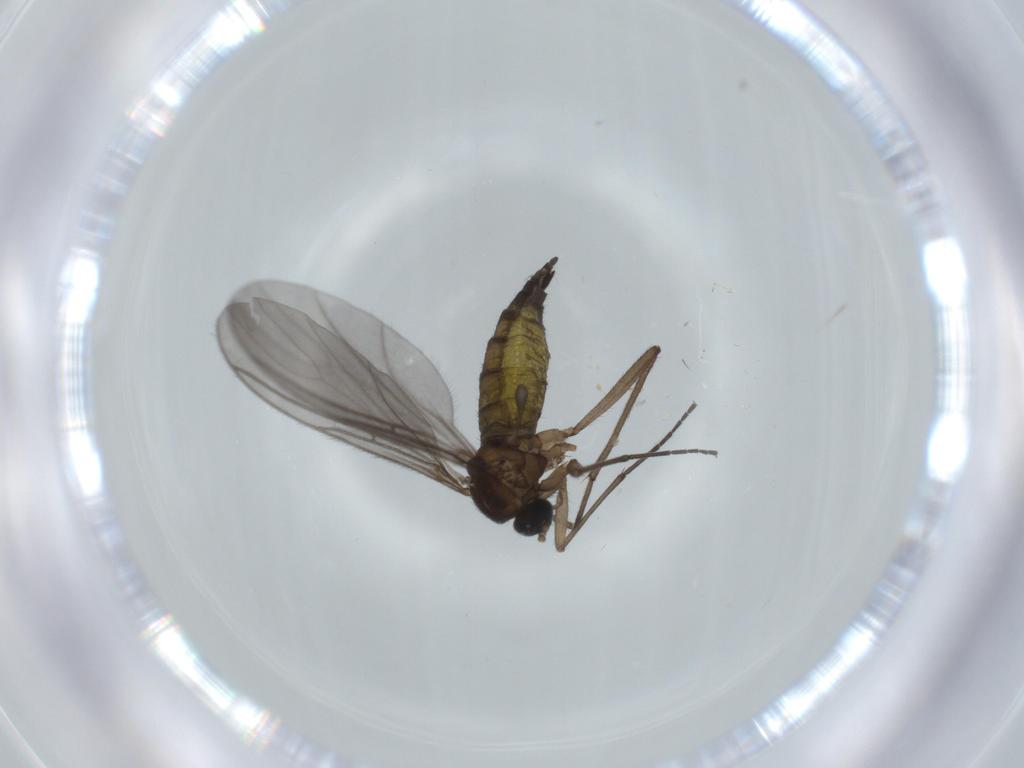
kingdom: Animalia
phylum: Arthropoda
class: Insecta
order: Diptera
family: Sciaridae
